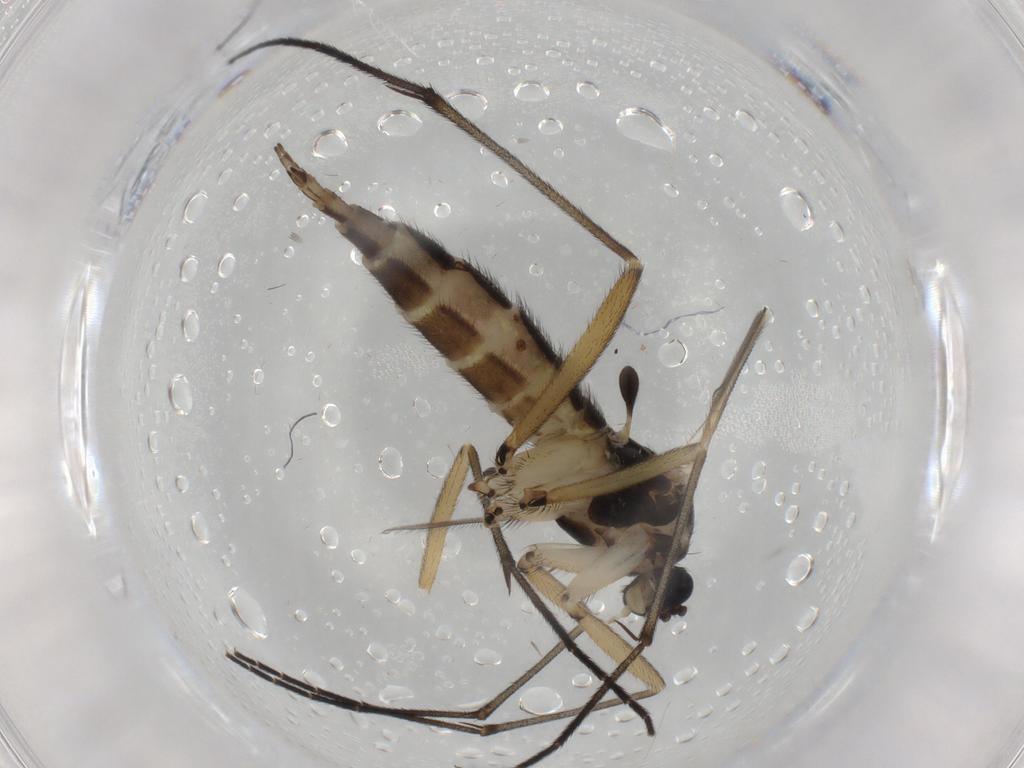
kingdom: Animalia
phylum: Arthropoda
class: Insecta
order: Diptera
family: Sciaridae
